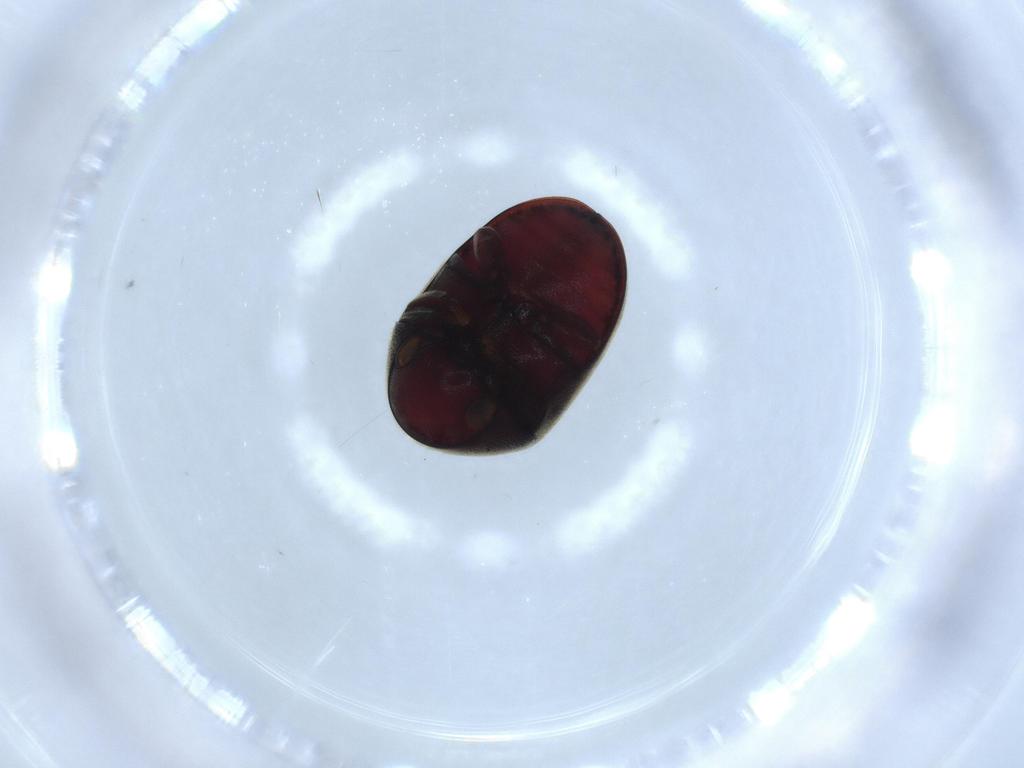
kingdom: Animalia
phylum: Arthropoda
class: Insecta
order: Coleoptera
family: Ptinidae
